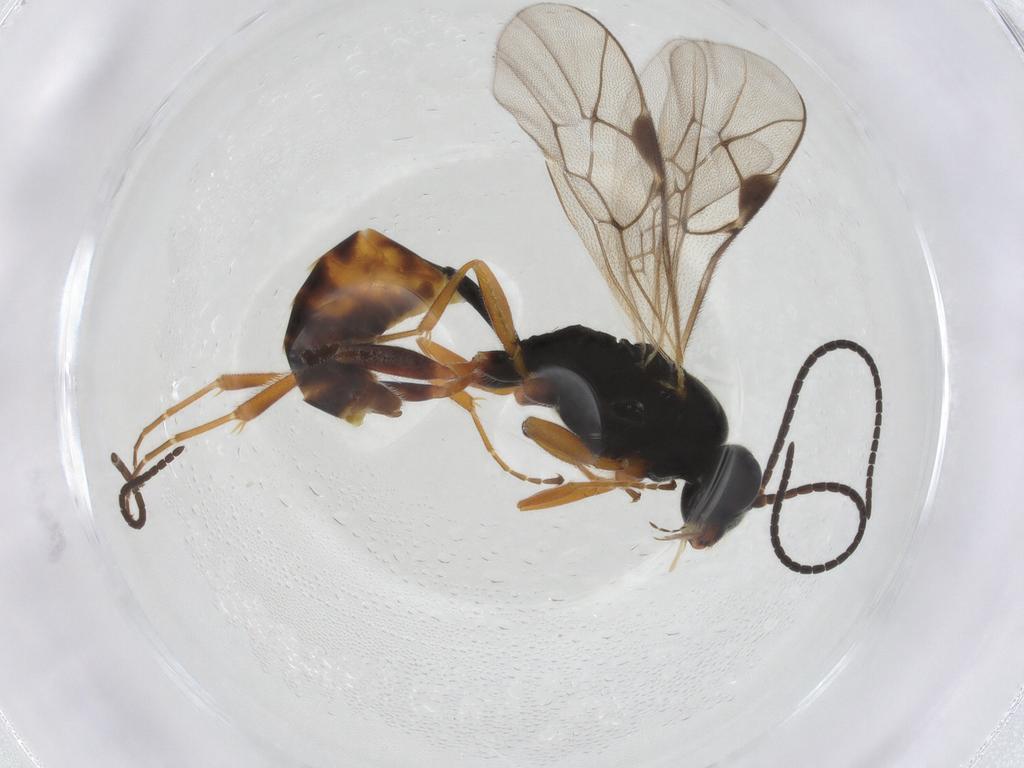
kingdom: Animalia
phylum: Arthropoda
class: Insecta
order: Hymenoptera
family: Ichneumonidae
